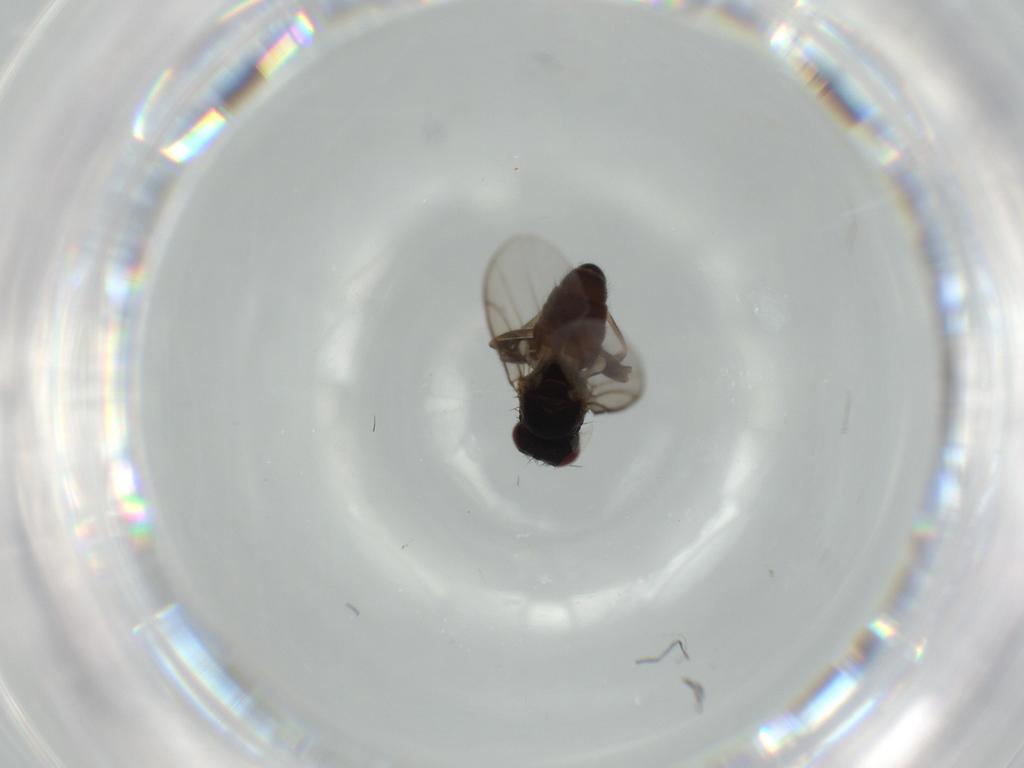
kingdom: Animalia
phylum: Arthropoda
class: Insecta
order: Diptera
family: Chloropidae
